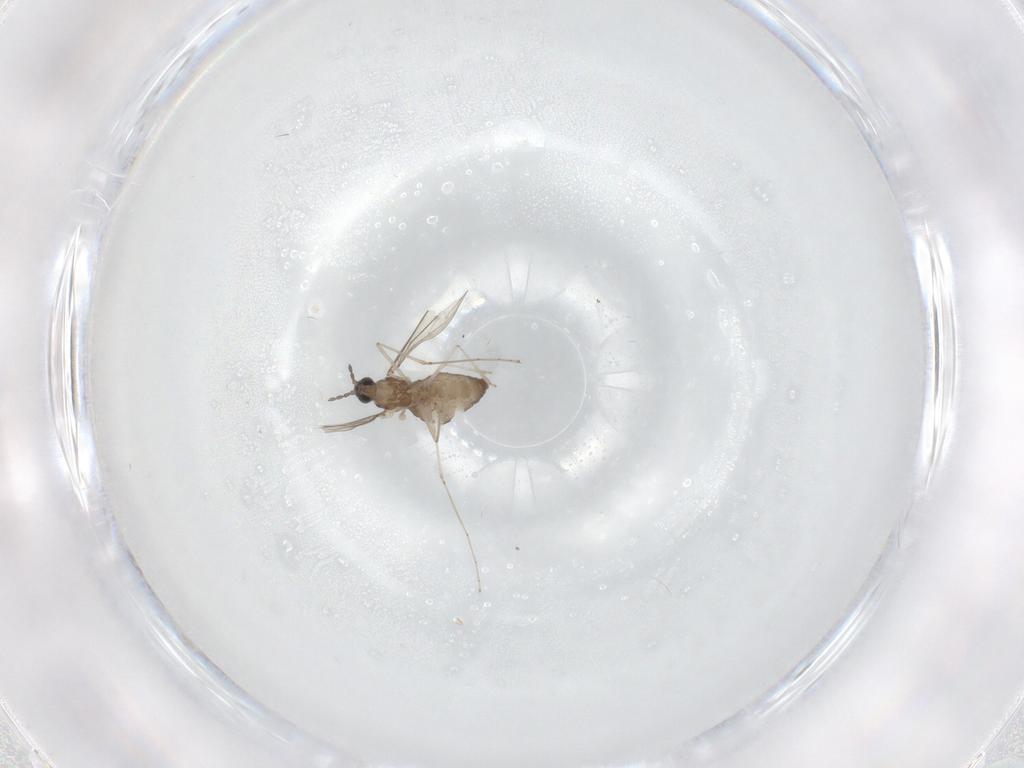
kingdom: Animalia
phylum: Arthropoda
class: Insecta
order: Diptera
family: Cecidomyiidae
